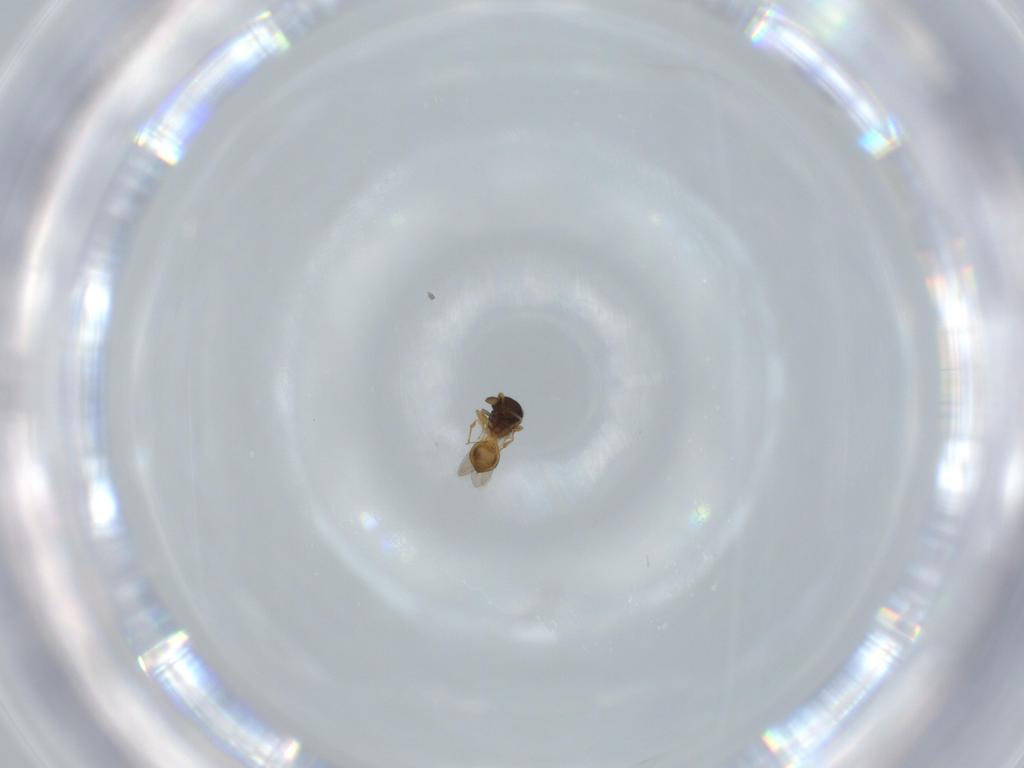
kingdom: Animalia
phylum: Arthropoda
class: Insecta
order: Hymenoptera
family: Scelionidae
